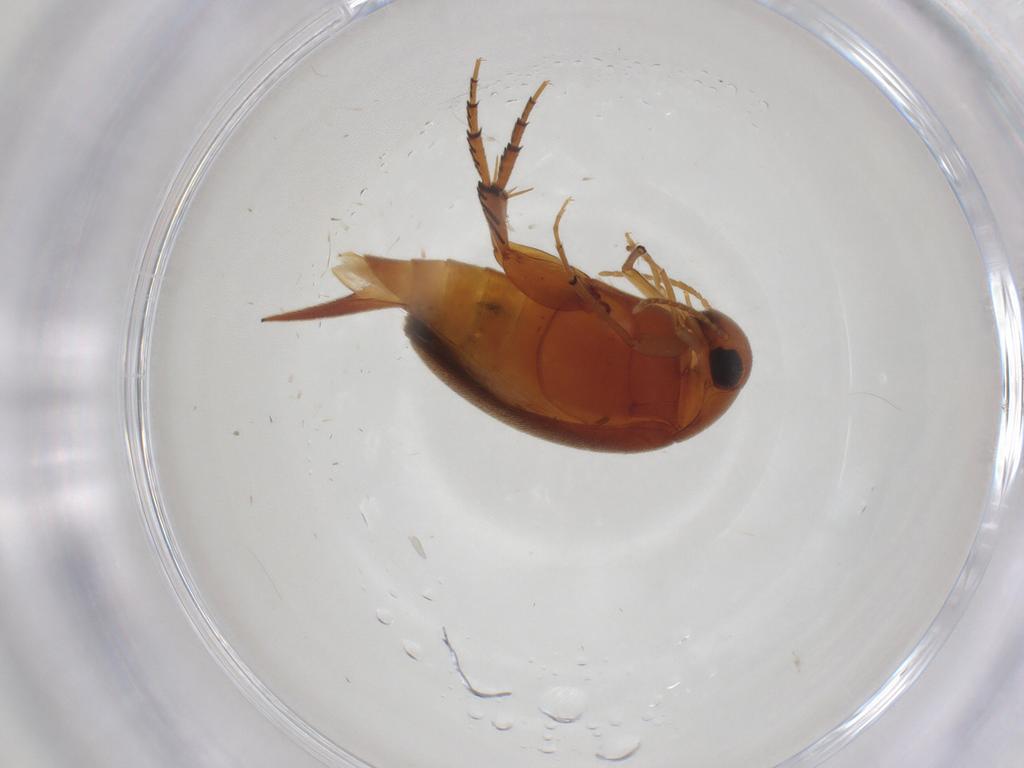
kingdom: Animalia
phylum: Arthropoda
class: Insecta
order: Coleoptera
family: Mordellidae
